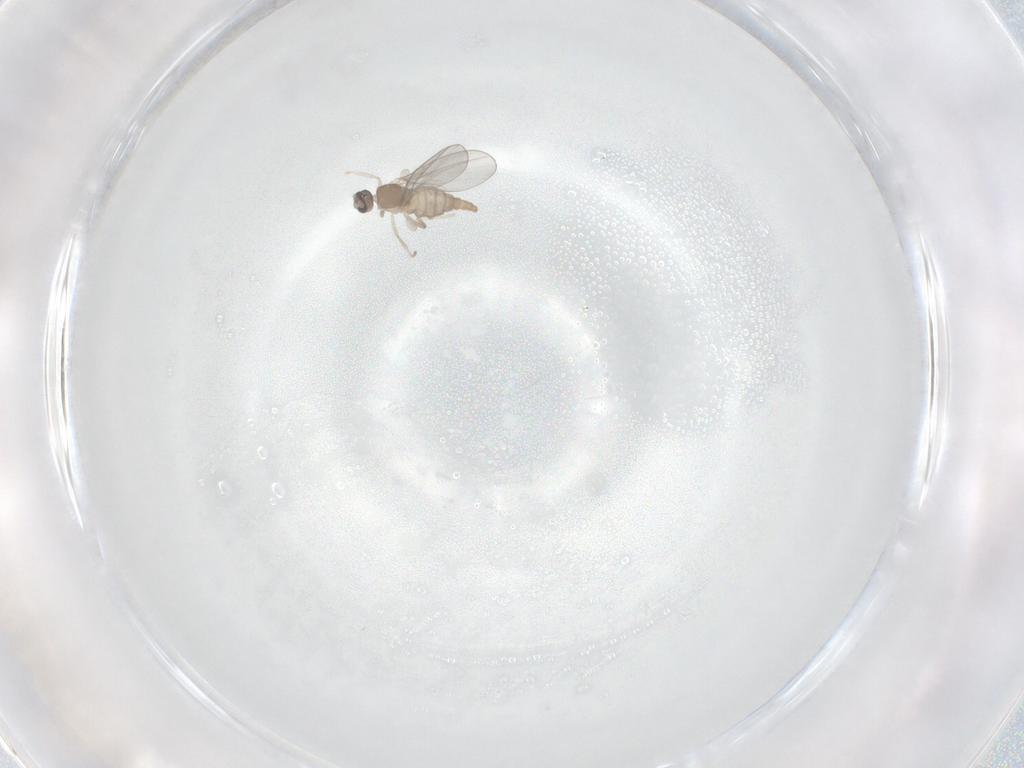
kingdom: Animalia
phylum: Arthropoda
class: Insecta
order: Diptera
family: Cecidomyiidae
